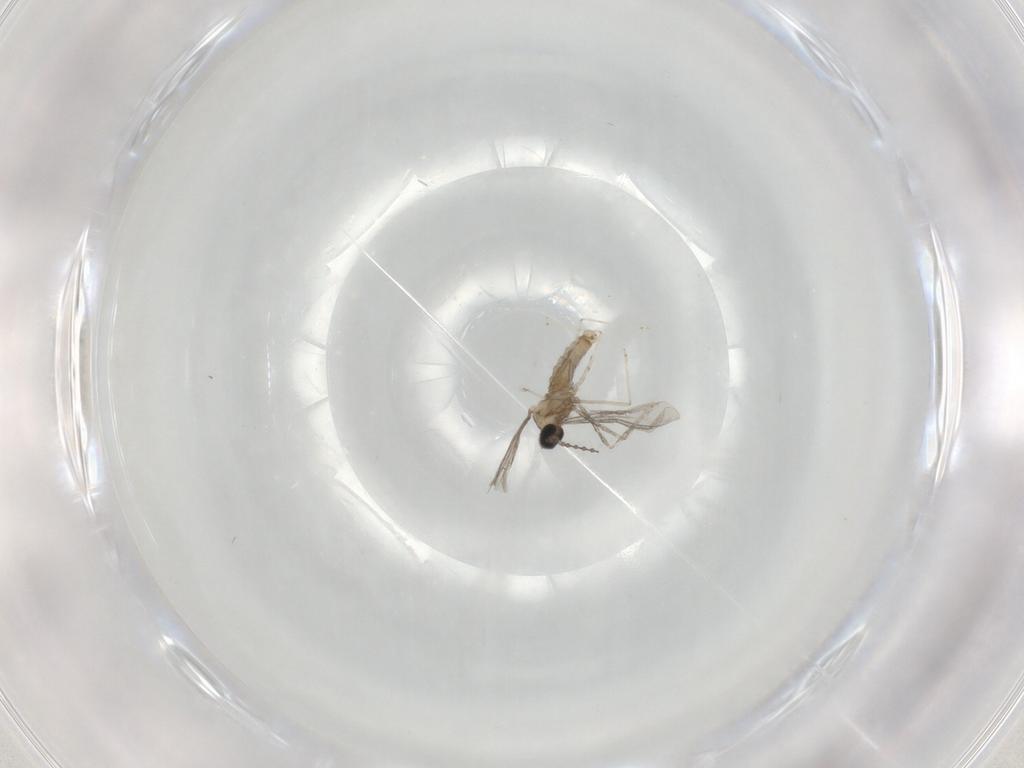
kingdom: Animalia
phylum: Arthropoda
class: Insecta
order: Diptera
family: Cecidomyiidae
